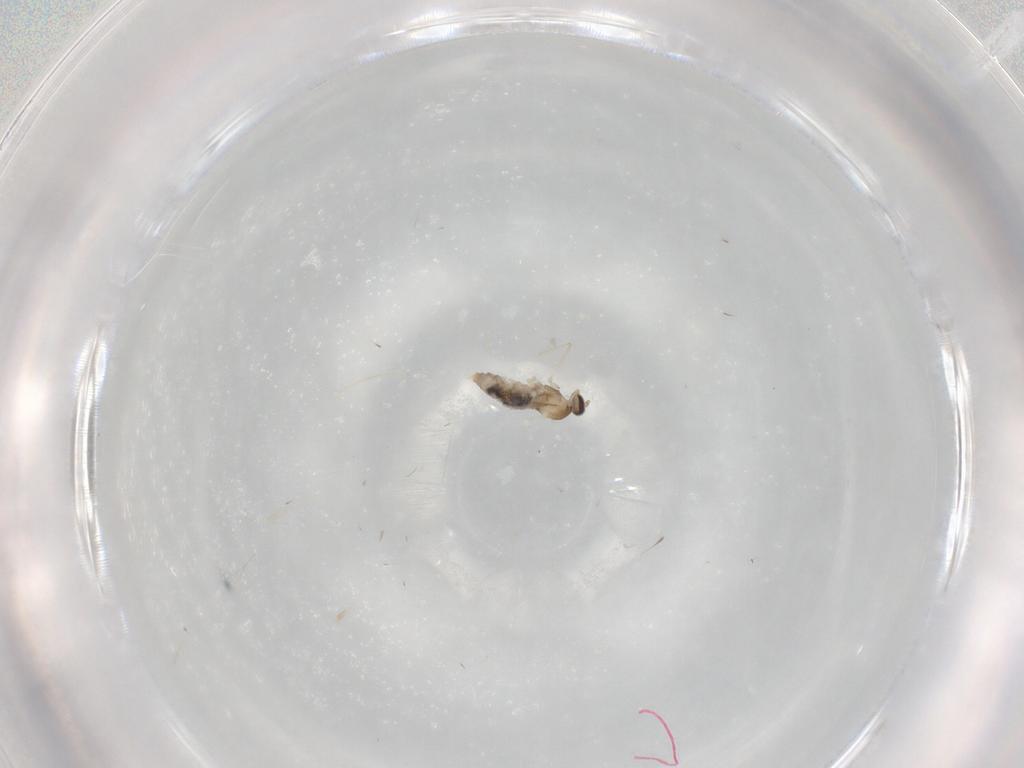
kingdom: Animalia
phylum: Arthropoda
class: Insecta
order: Diptera
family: Cecidomyiidae
